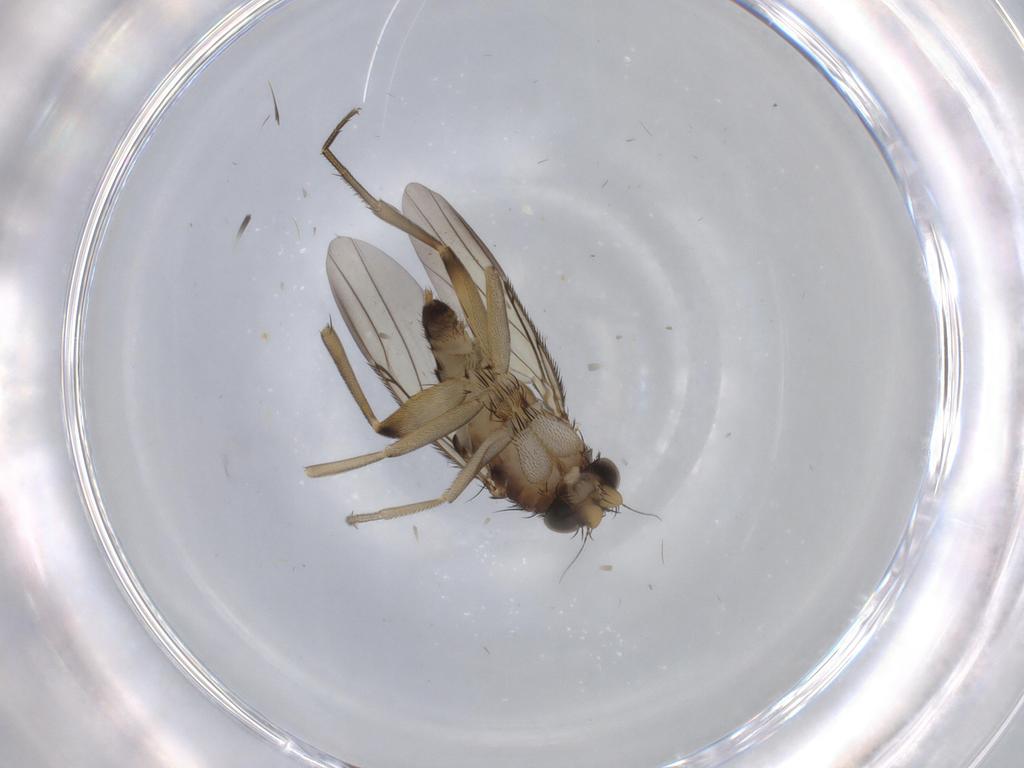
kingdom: Animalia
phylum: Arthropoda
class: Insecta
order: Diptera
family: Phoridae
